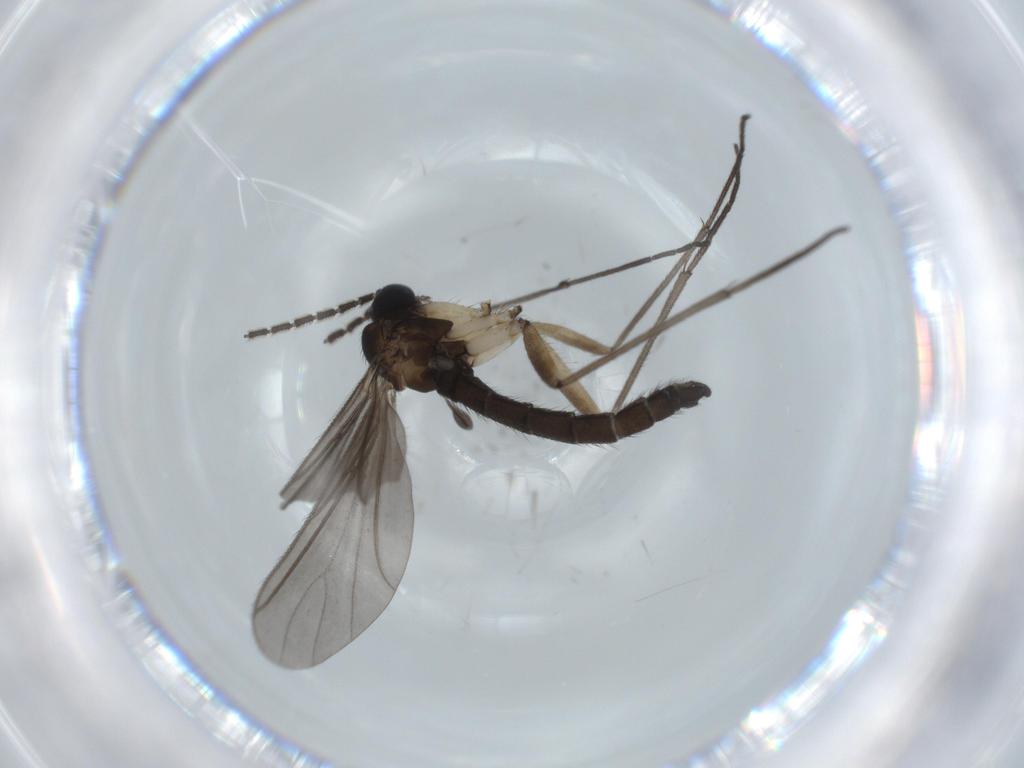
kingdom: Animalia
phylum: Arthropoda
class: Insecta
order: Diptera
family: Sciaridae
